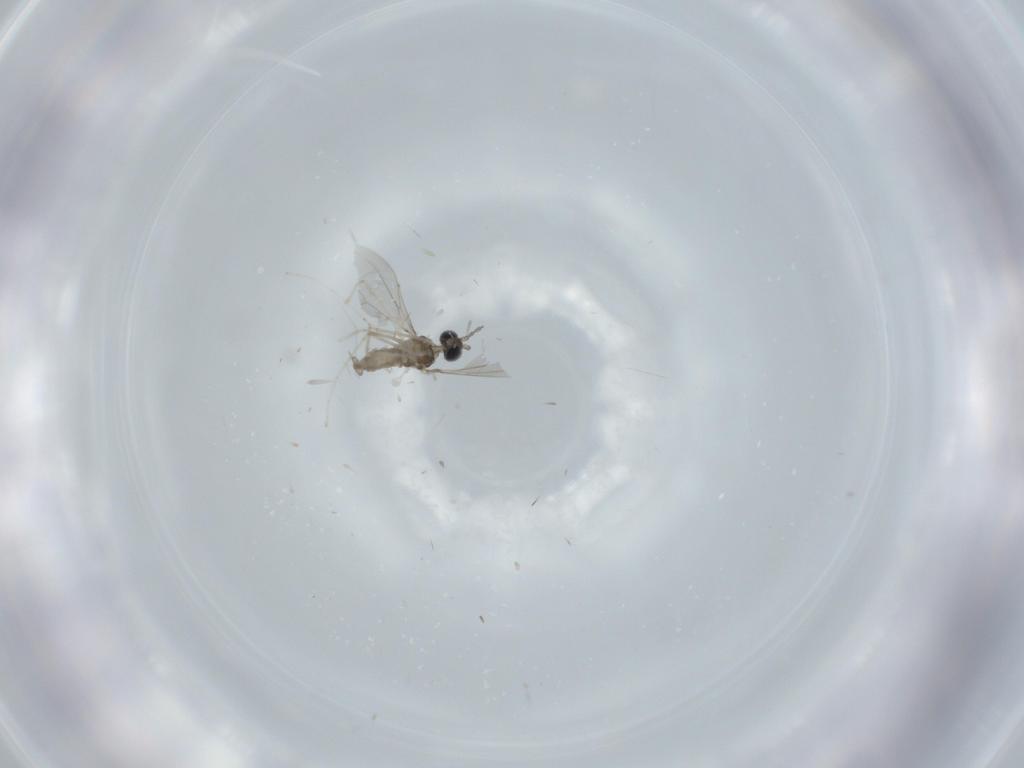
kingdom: Animalia
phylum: Arthropoda
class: Insecta
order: Diptera
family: Cecidomyiidae
